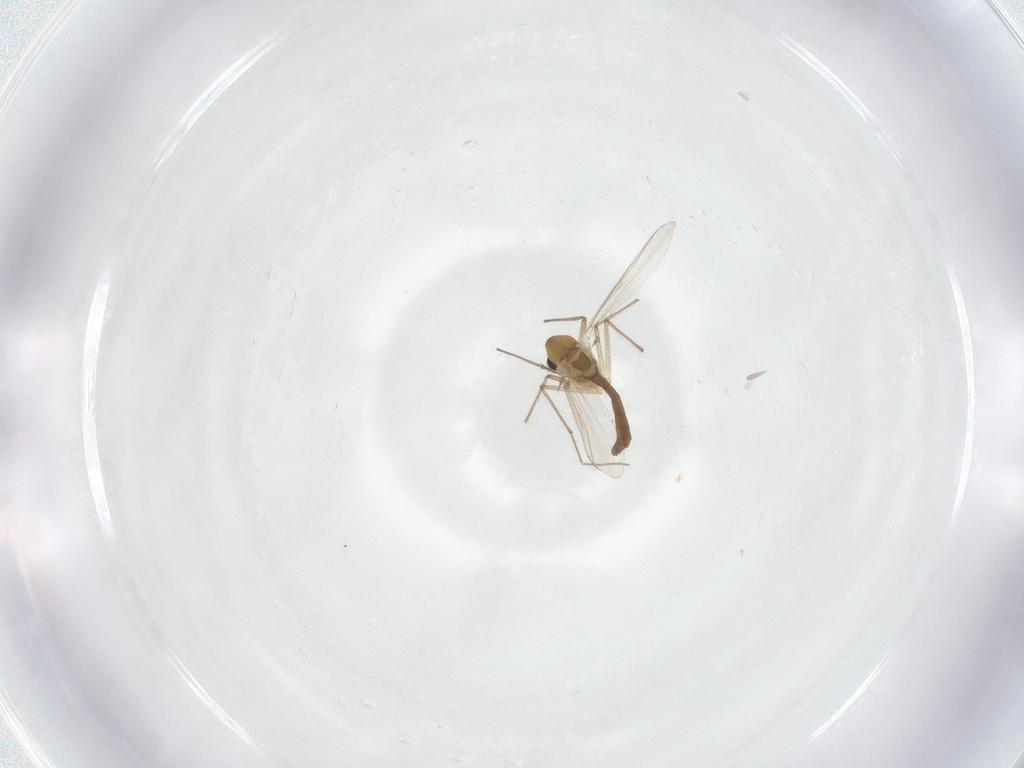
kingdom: Animalia
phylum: Arthropoda
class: Insecta
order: Diptera
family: Chironomidae
